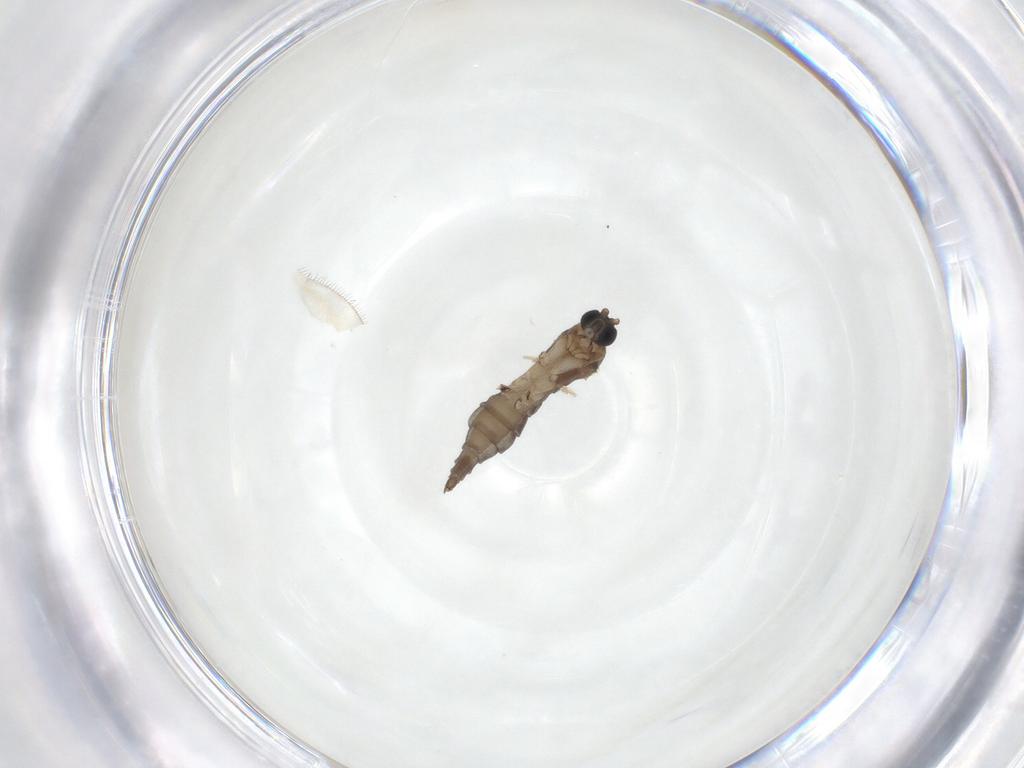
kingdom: Animalia
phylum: Arthropoda
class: Insecta
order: Diptera
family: Sciaridae
